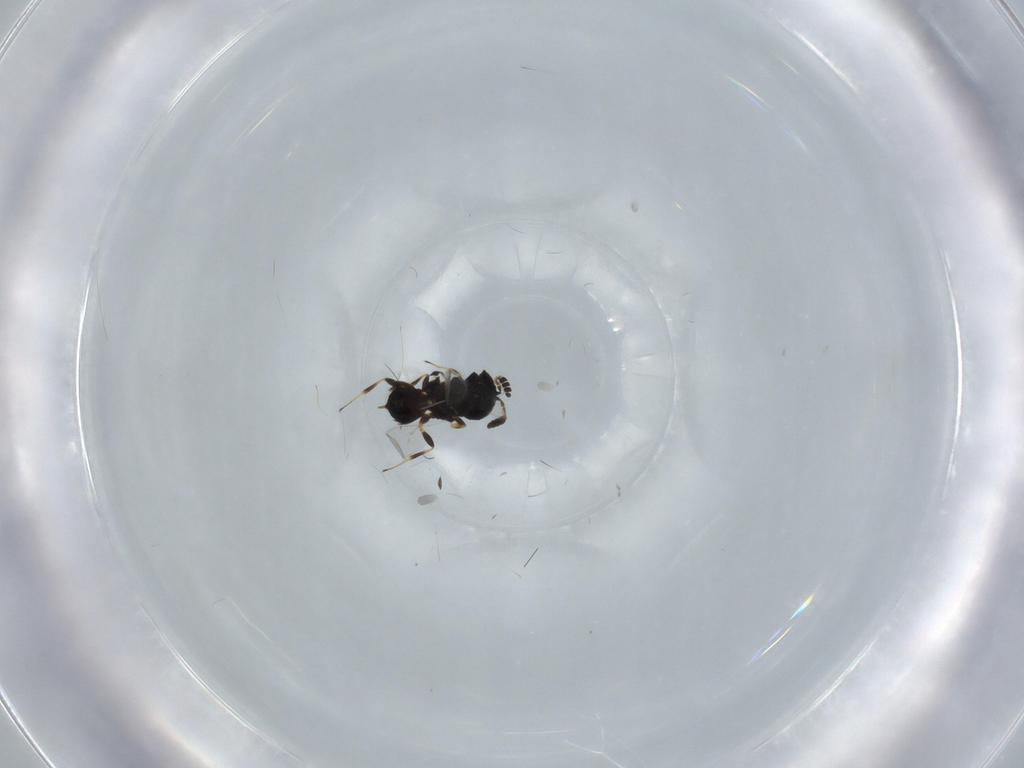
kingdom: Animalia
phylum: Arthropoda
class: Insecta
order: Hymenoptera
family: Scelionidae
